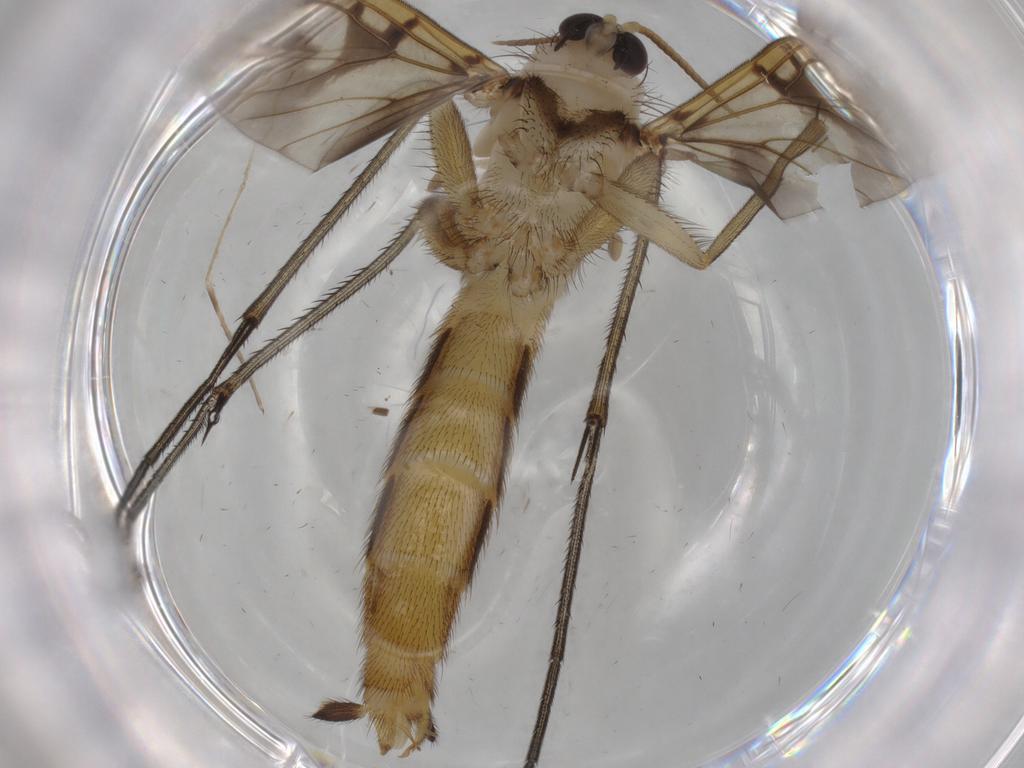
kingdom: Animalia
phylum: Arthropoda
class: Insecta
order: Diptera
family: Mycetophilidae
